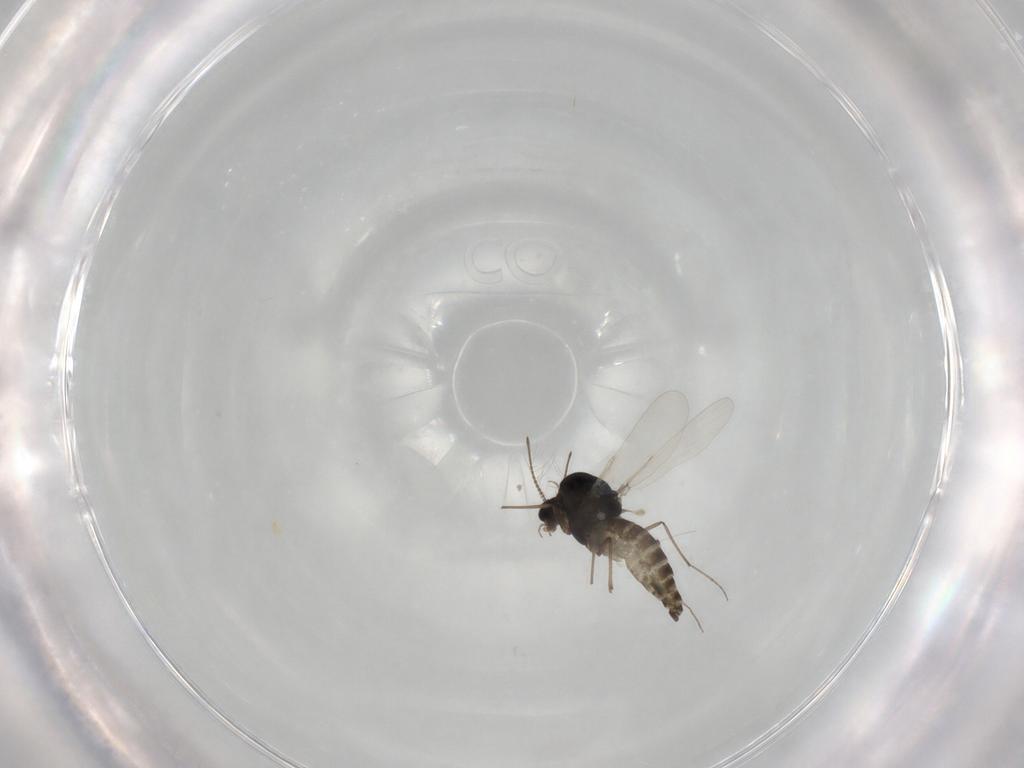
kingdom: Animalia
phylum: Arthropoda
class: Insecta
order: Diptera
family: Chironomidae
